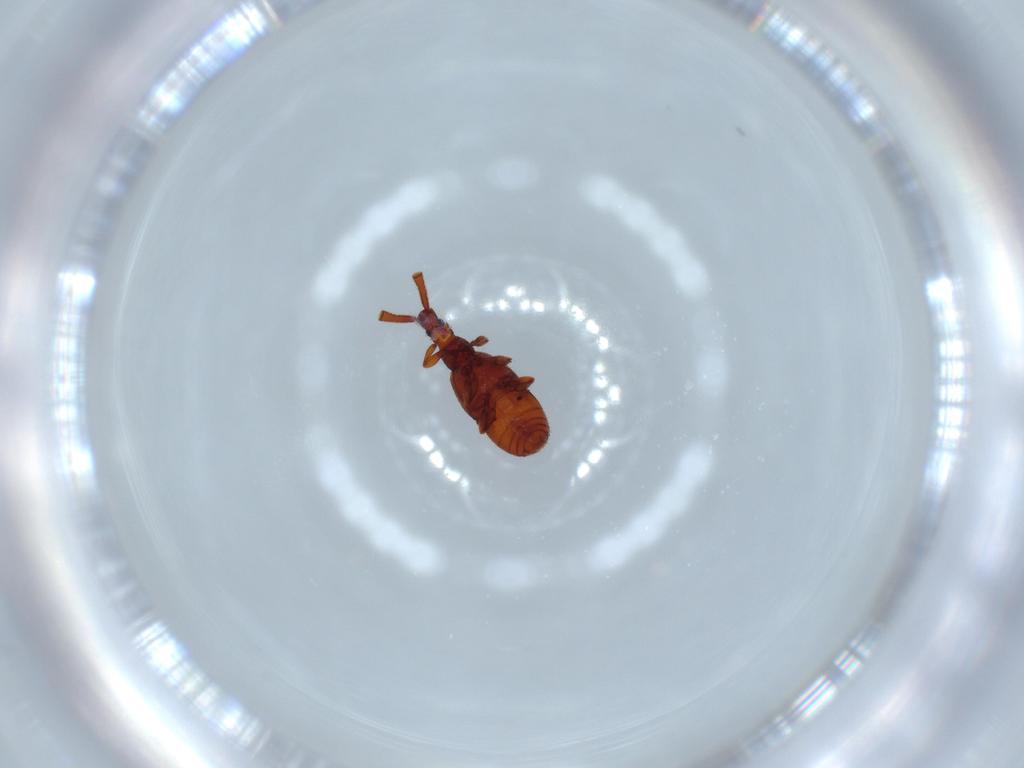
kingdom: Animalia
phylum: Arthropoda
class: Insecta
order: Coleoptera
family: Staphylinidae
